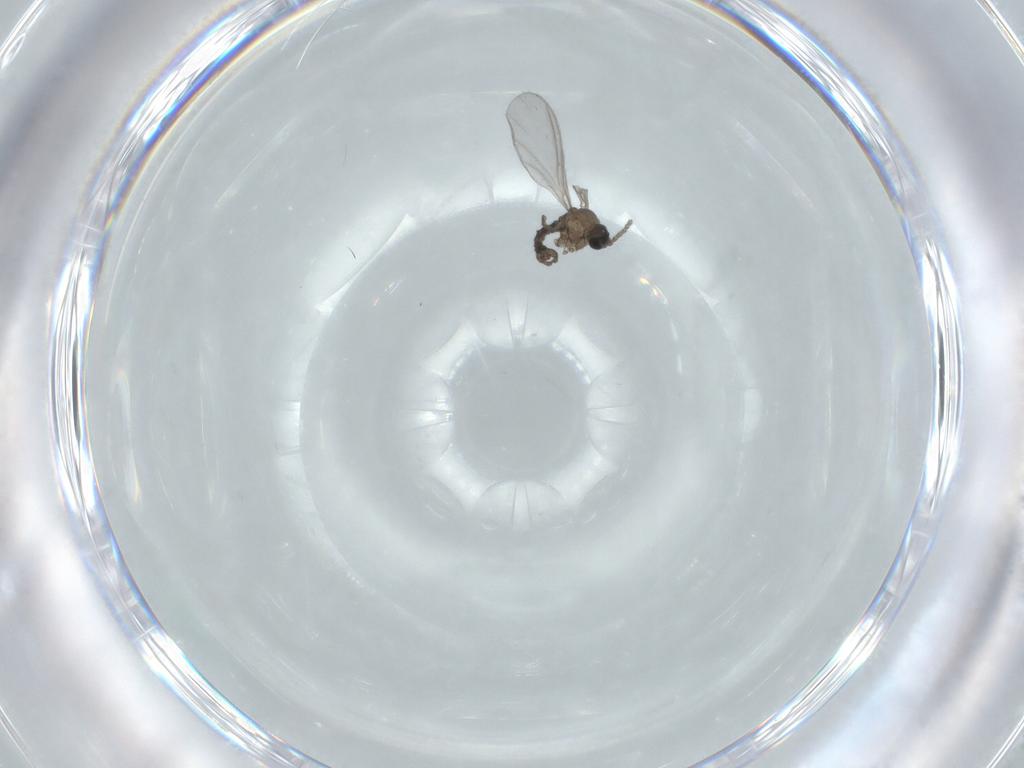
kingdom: Animalia
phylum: Arthropoda
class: Insecta
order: Diptera
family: Sciaridae
